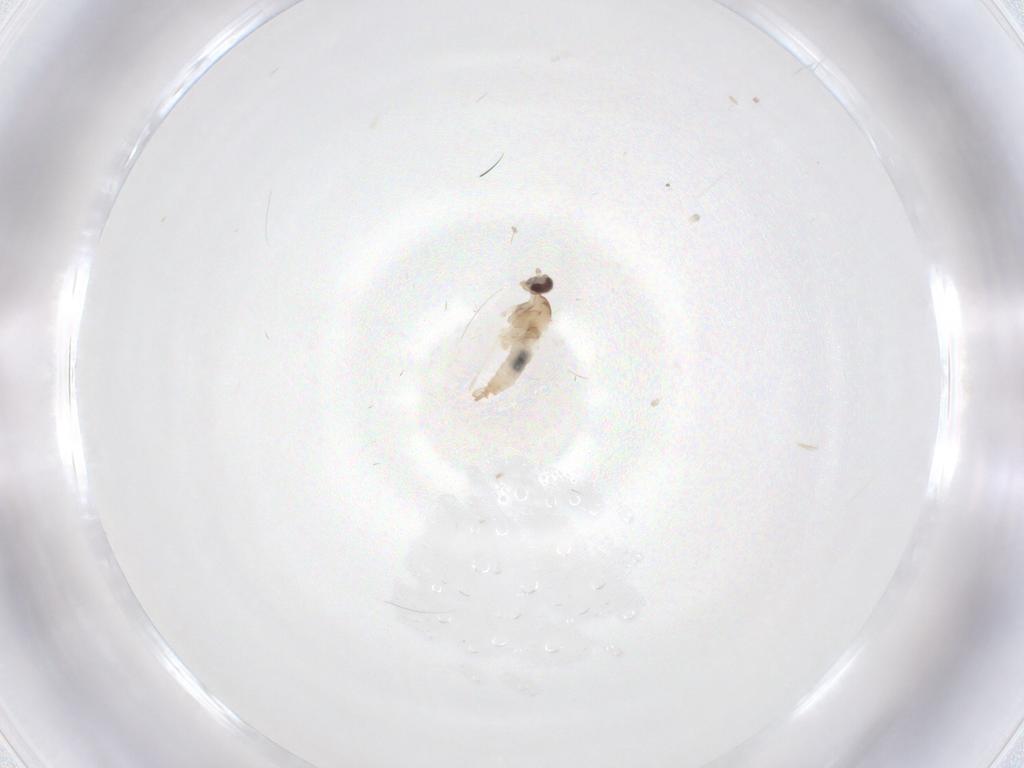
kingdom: Animalia
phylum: Arthropoda
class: Insecta
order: Diptera
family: Cecidomyiidae
